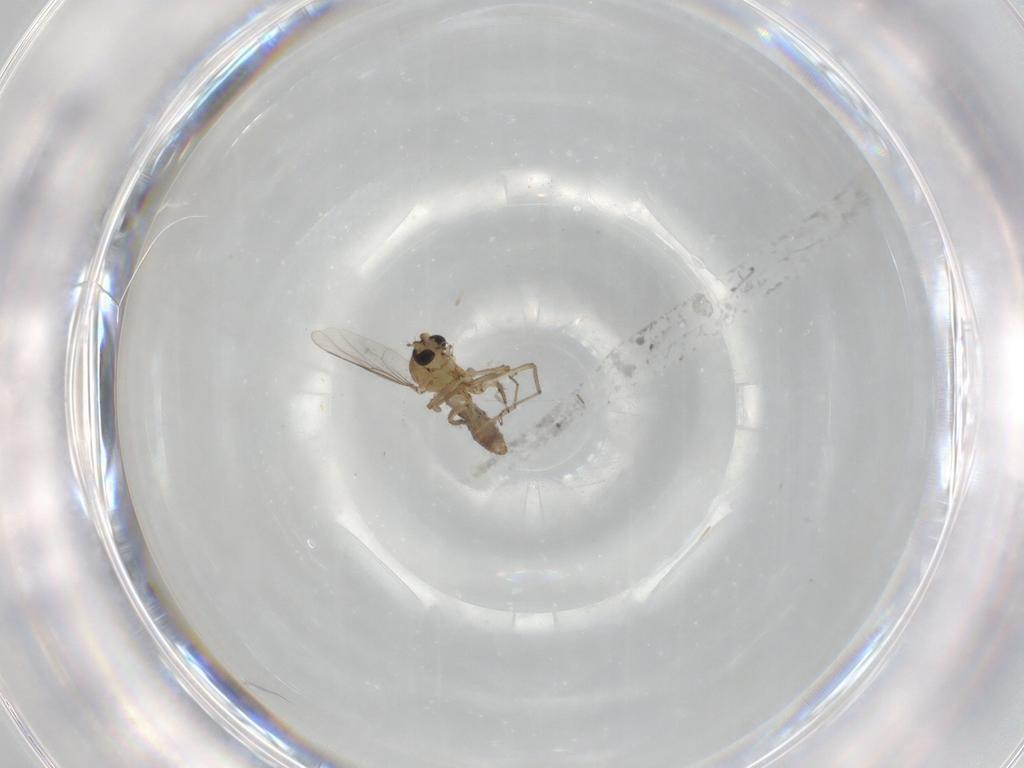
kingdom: Animalia
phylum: Arthropoda
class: Insecta
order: Diptera
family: Ceratopogonidae
